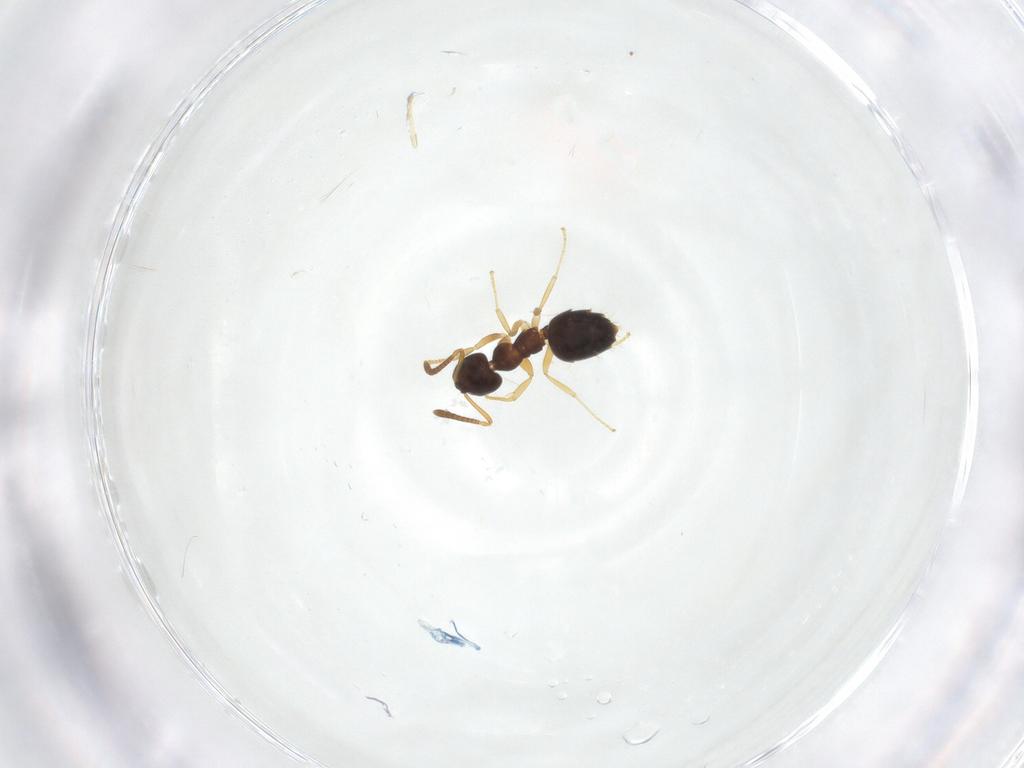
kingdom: Animalia
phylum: Arthropoda
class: Insecta
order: Hymenoptera
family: Formicidae
